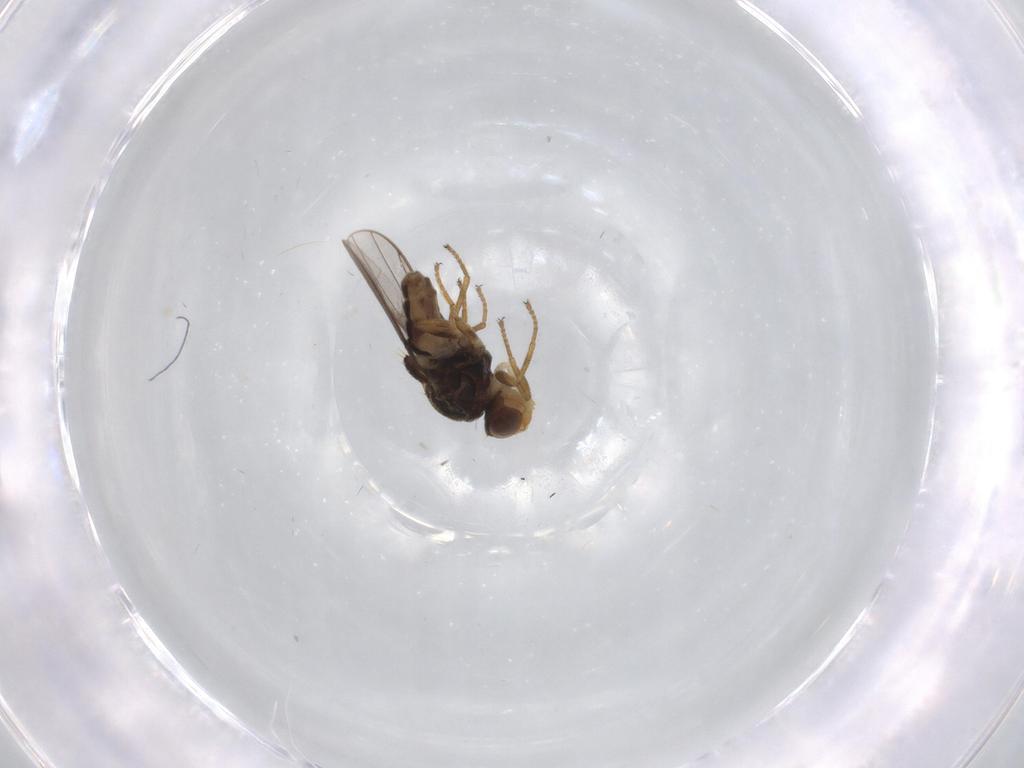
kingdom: Animalia
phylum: Arthropoda
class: Insecta
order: Diptera
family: Chloropidae
